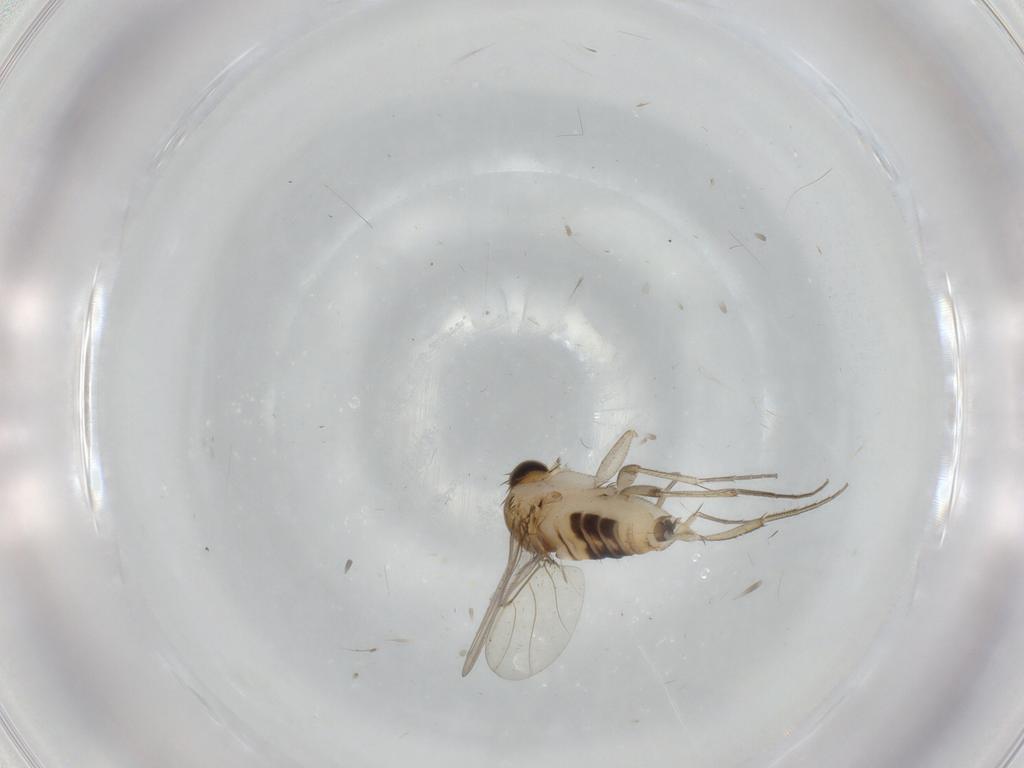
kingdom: Animalia
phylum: Arthropoda
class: Insecta
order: Diptera
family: Phoridae
